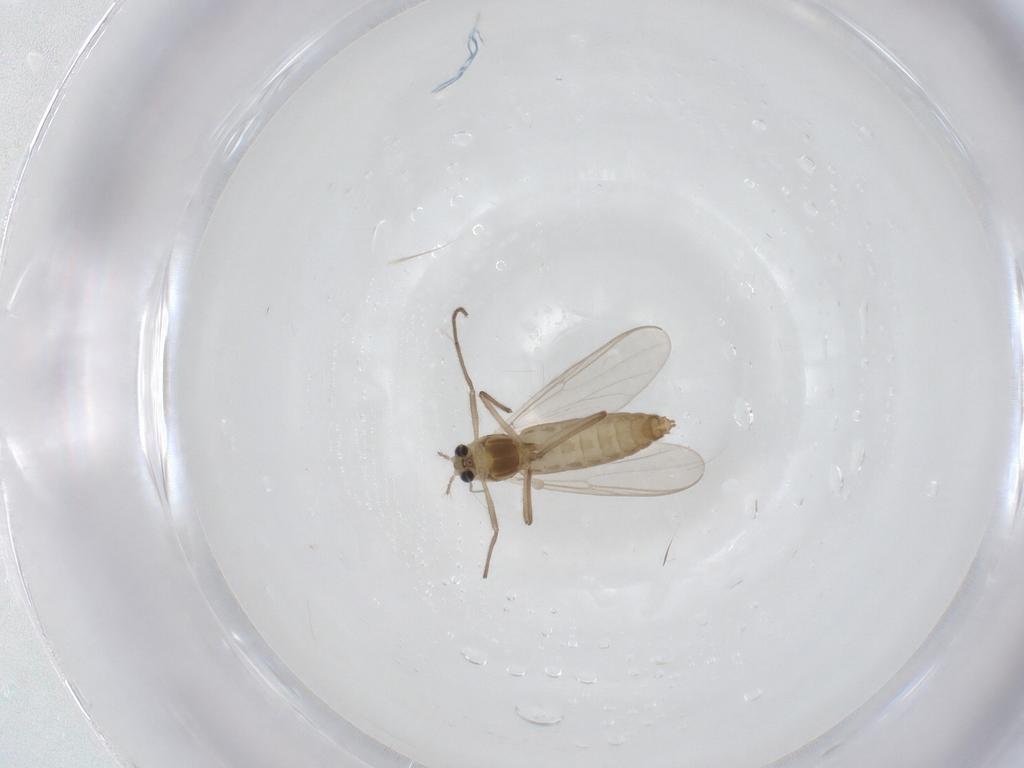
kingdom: Animalia
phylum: Arthropoda
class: Insecta
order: Diptera
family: Chironomidae
